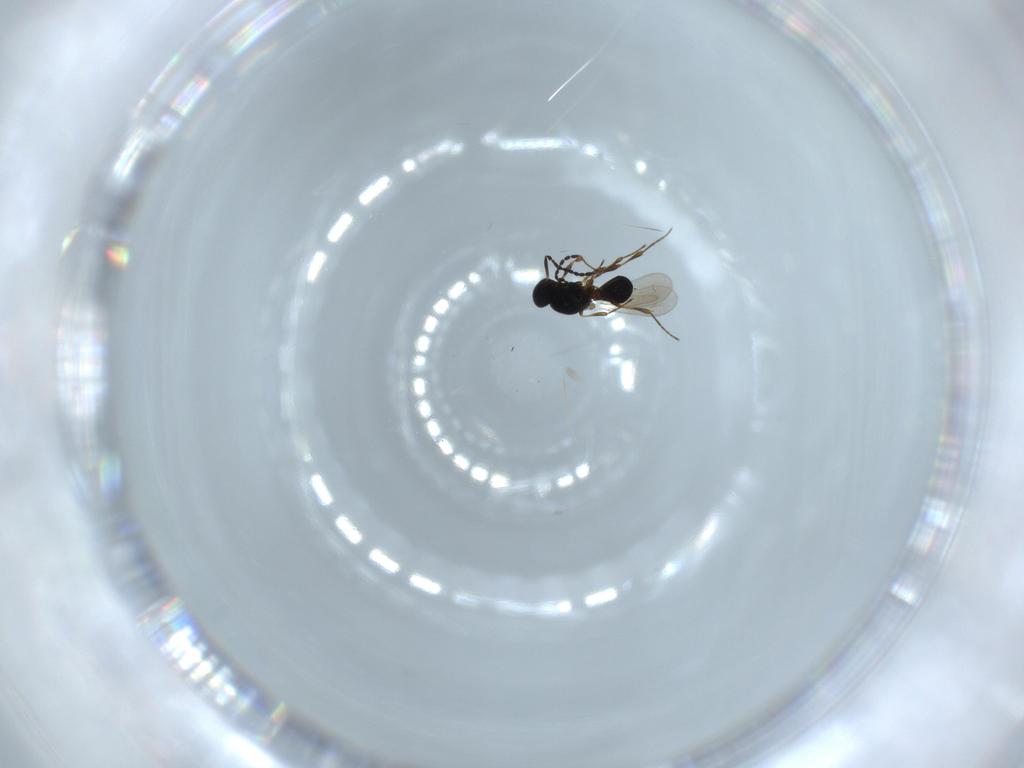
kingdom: Animalia
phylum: Arthropoda
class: Insecta
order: Hymenoptera
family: Platygastridae
